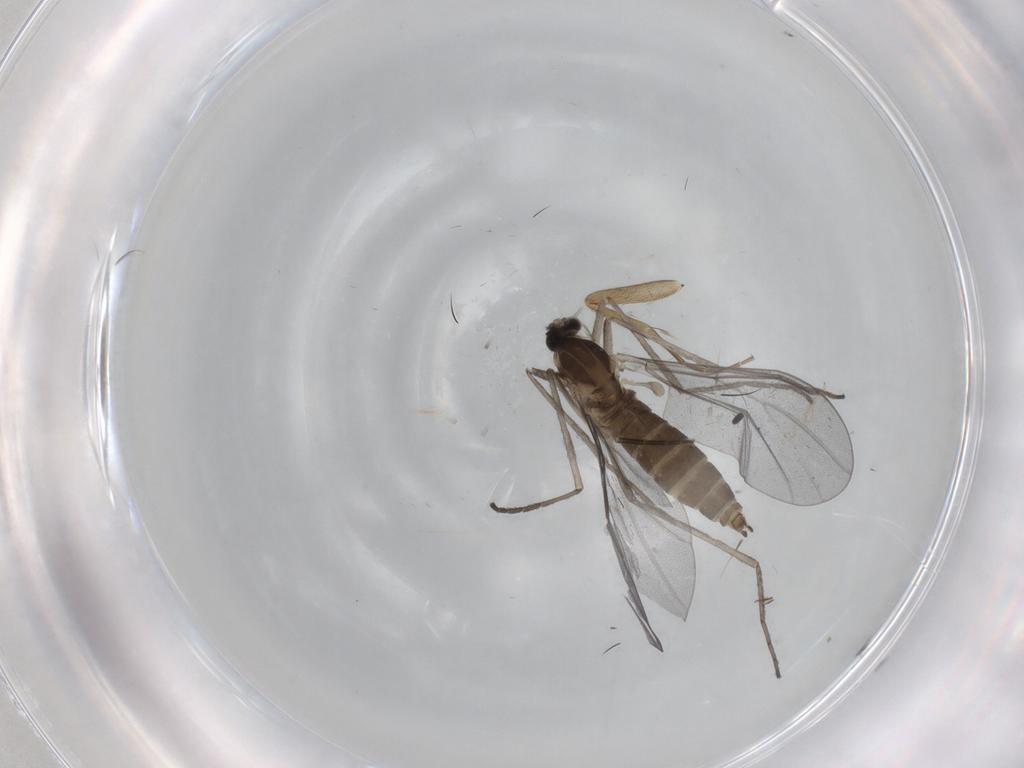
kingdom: Animalia
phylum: Arthropoda
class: Insecta
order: Diptera
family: Cecidomyiidae
